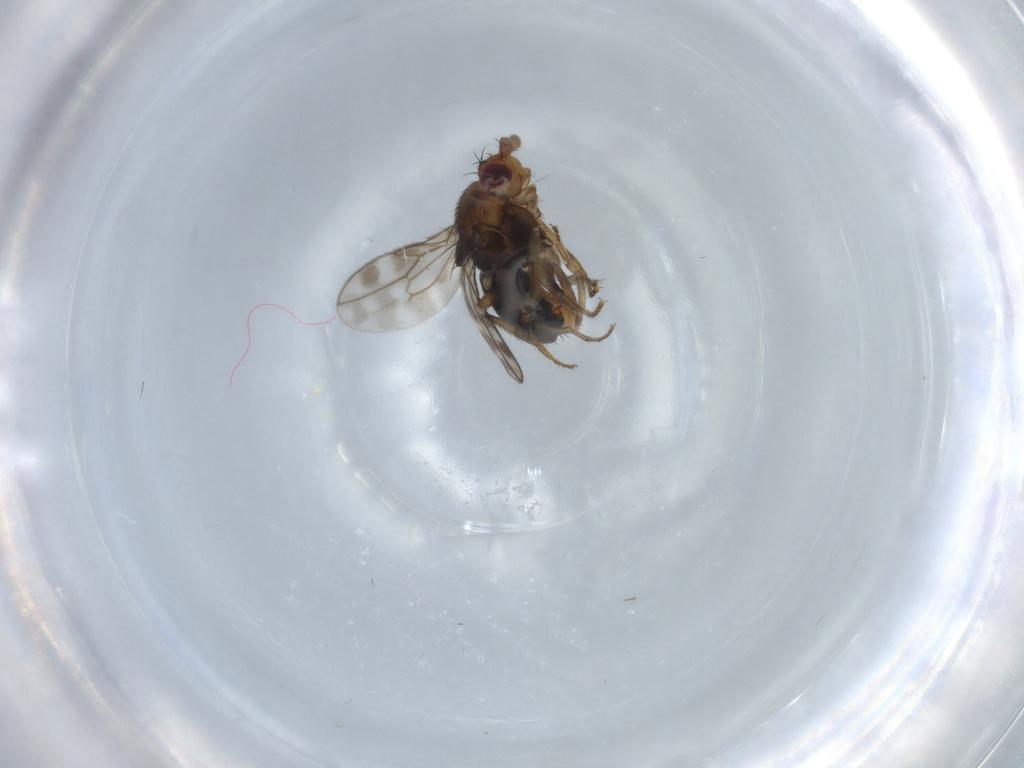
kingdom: Animalia
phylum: Arthropoda
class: Insecta
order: Diptera
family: Sphaeroceridae
